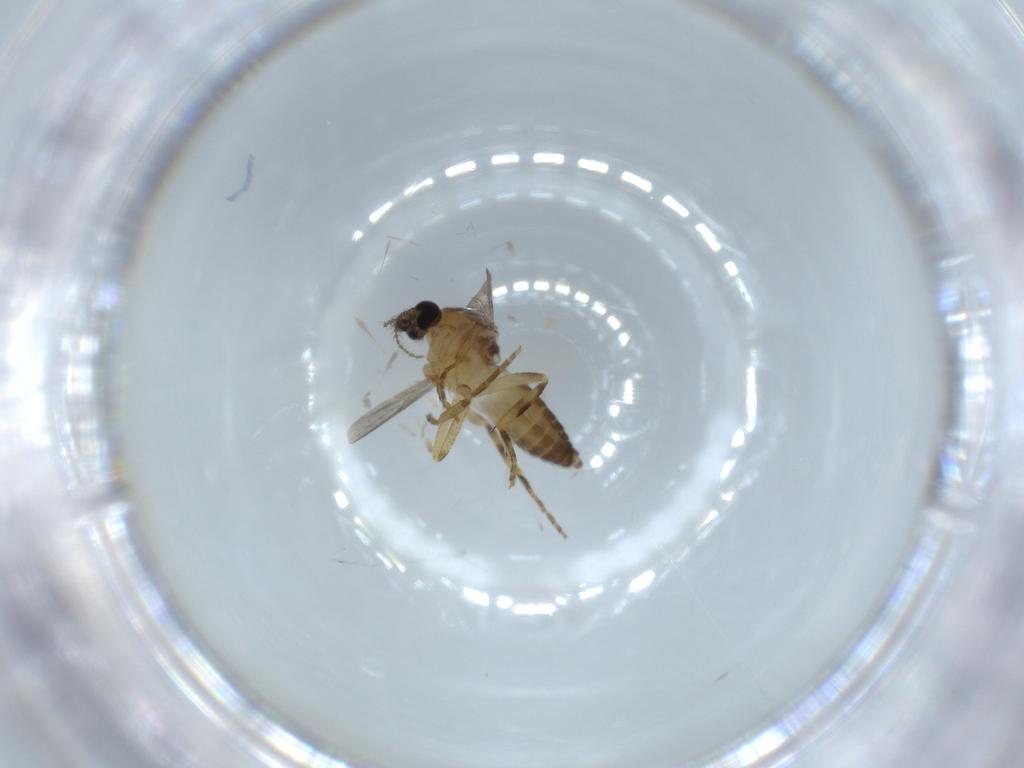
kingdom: Animalia
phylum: Arthropoda
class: Insecta
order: Diptera
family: Ceratopogonidae
